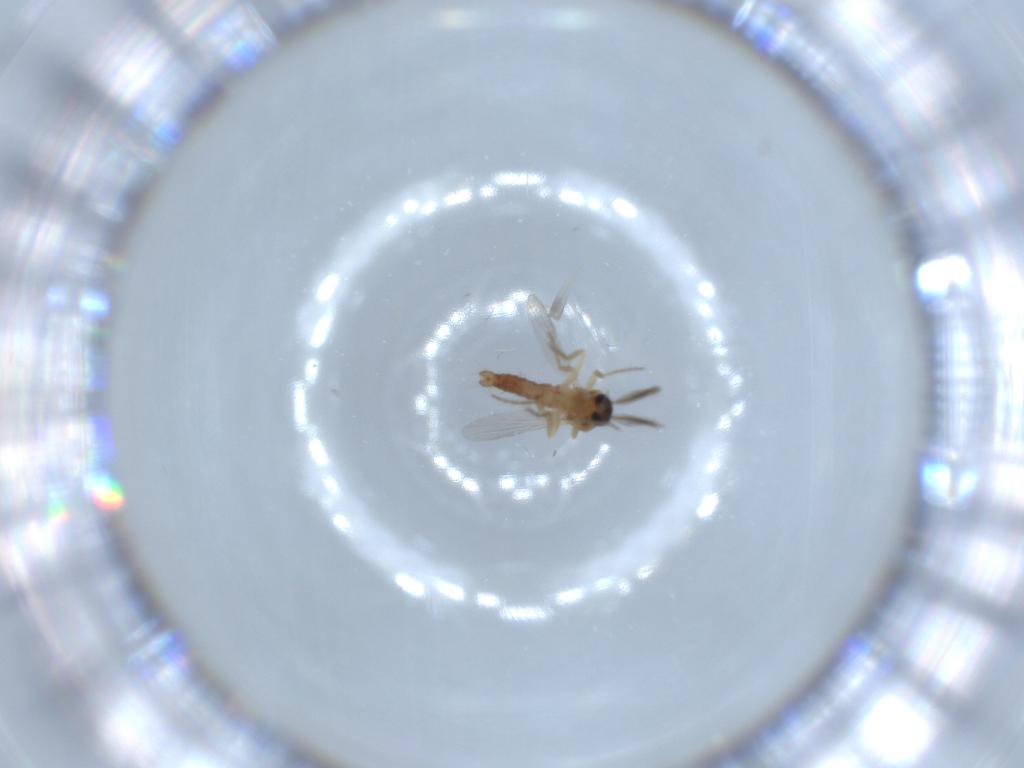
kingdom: Animalia
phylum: Arthropoda
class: Insecta
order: Diptera
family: Ceratopogonidae
